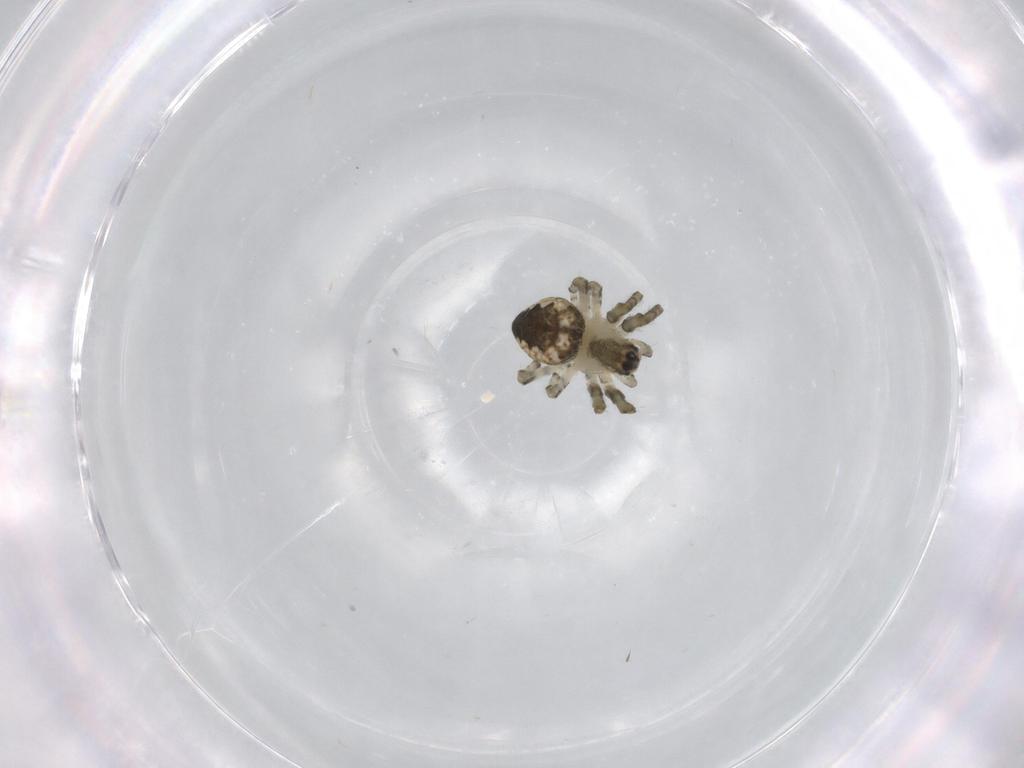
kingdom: Animalia
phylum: Arthropoda
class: Arachnida
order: Araneae
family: Araneidae
